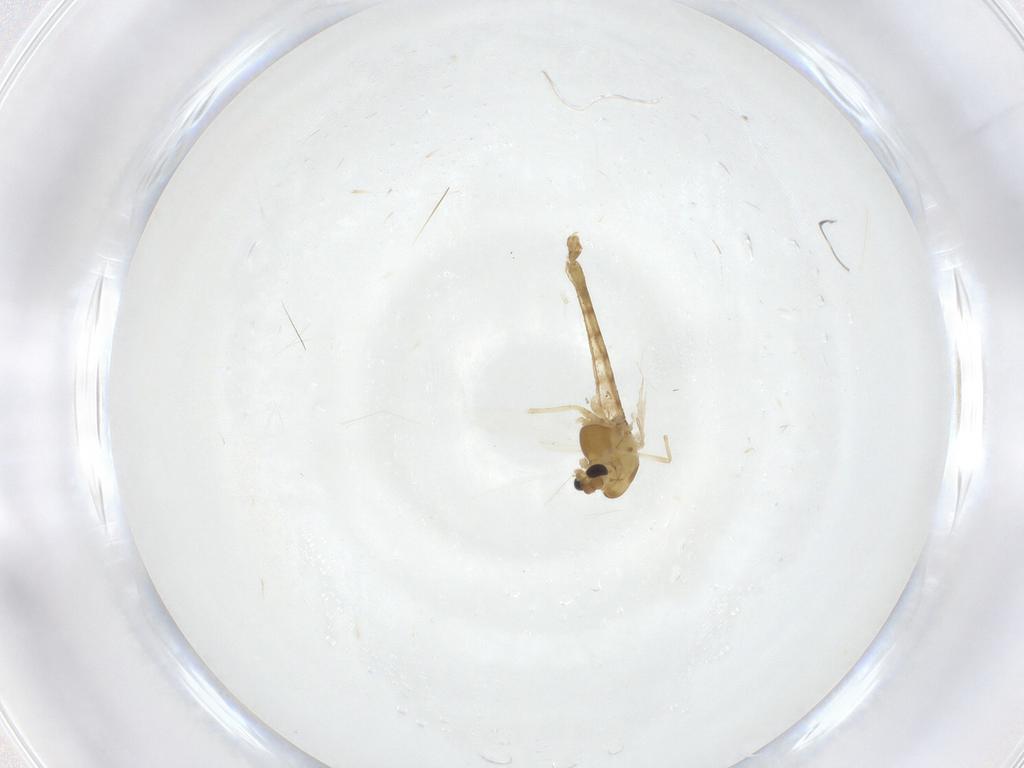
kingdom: Animalia
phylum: Arthropoda
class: Insecta
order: Diptera
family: Chironomidae
